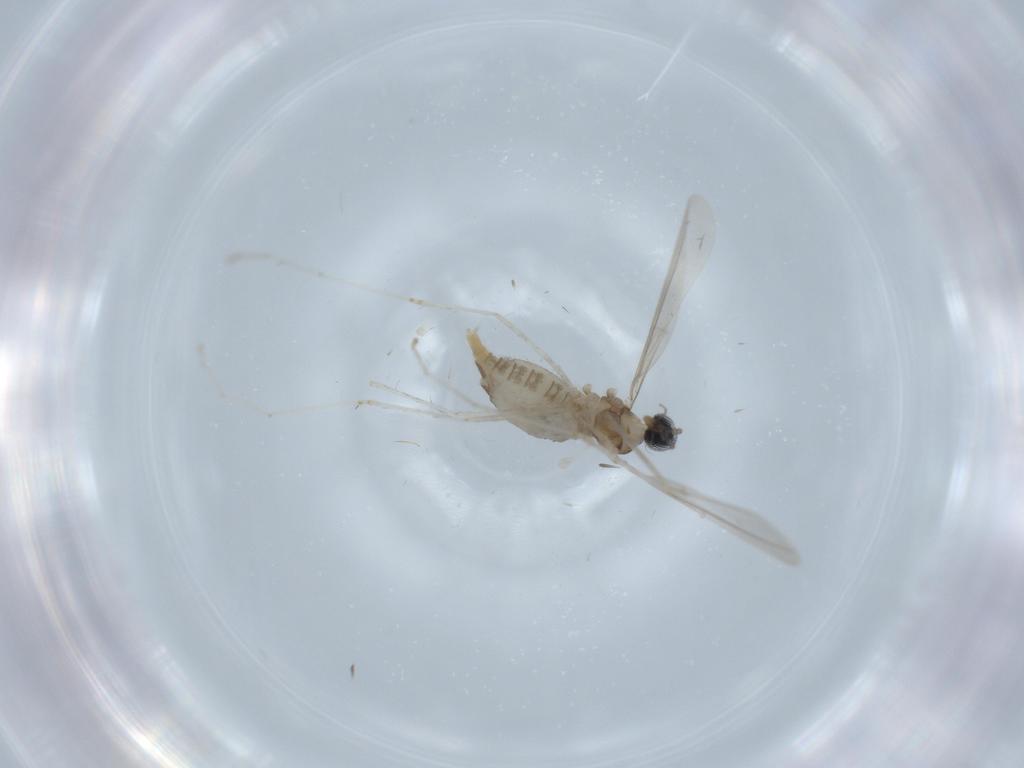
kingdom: Animalia
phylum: Arthropoda
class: Insecta
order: Diptera
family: Cecidomyiidae
